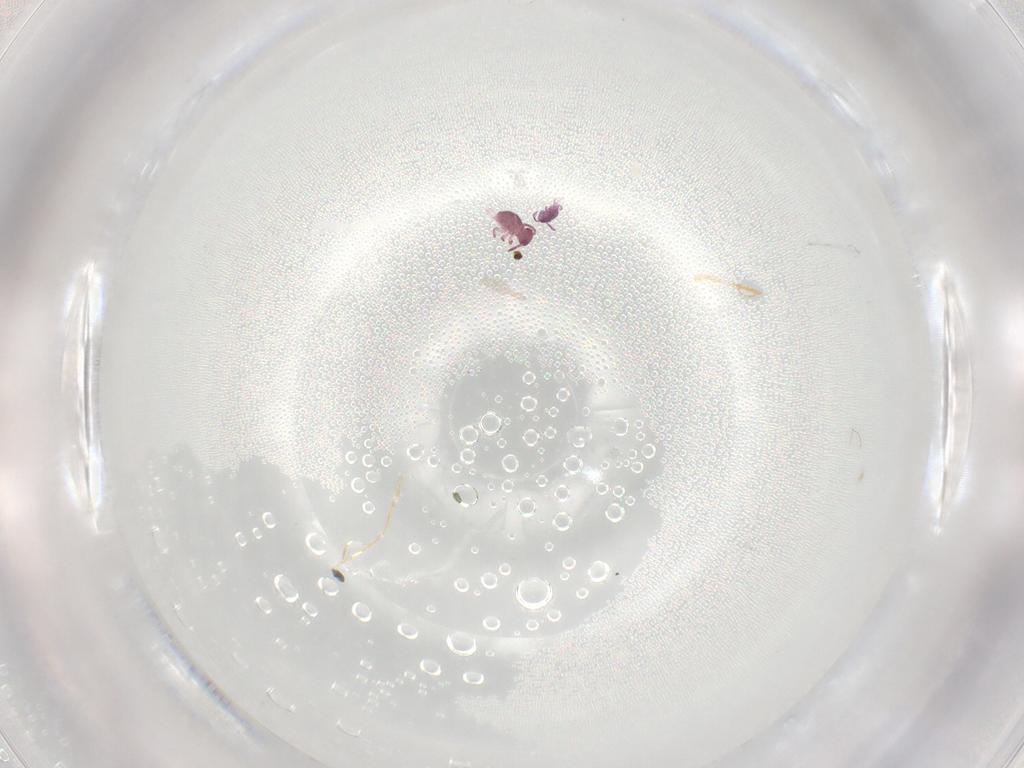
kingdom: Animalia
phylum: Arthropoda
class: Collembola
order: Symphypleona
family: Sminthurididae
